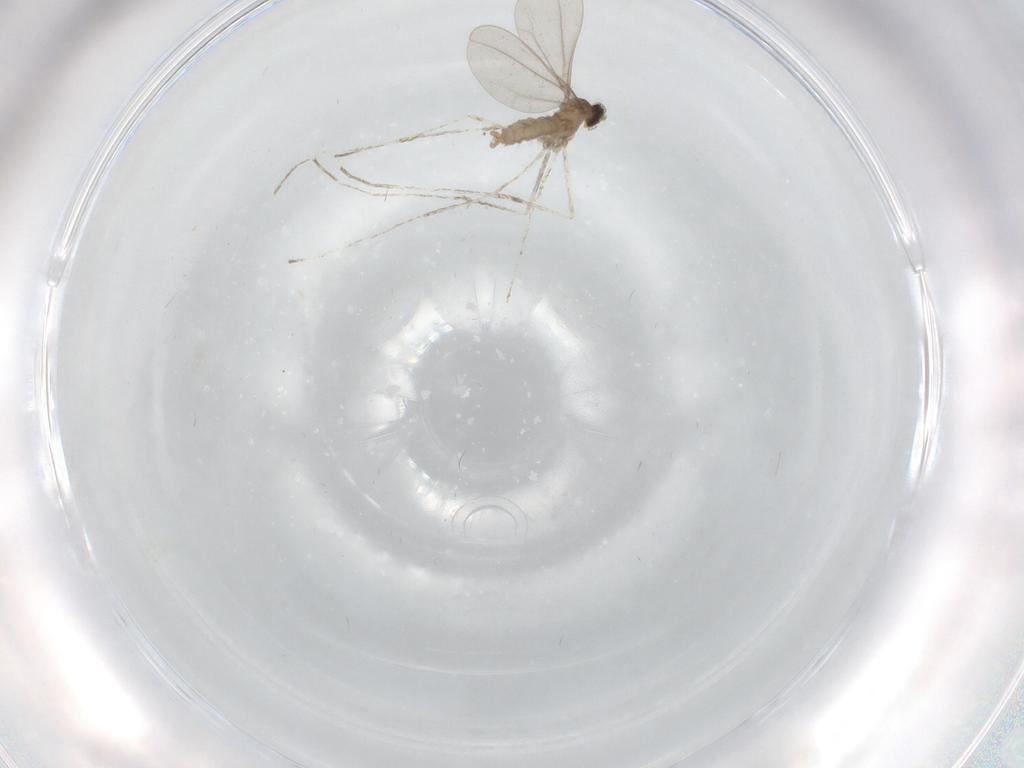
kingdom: Animalia
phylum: Arthropoda
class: Insecta
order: Diptera
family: Cecidomyiidae
